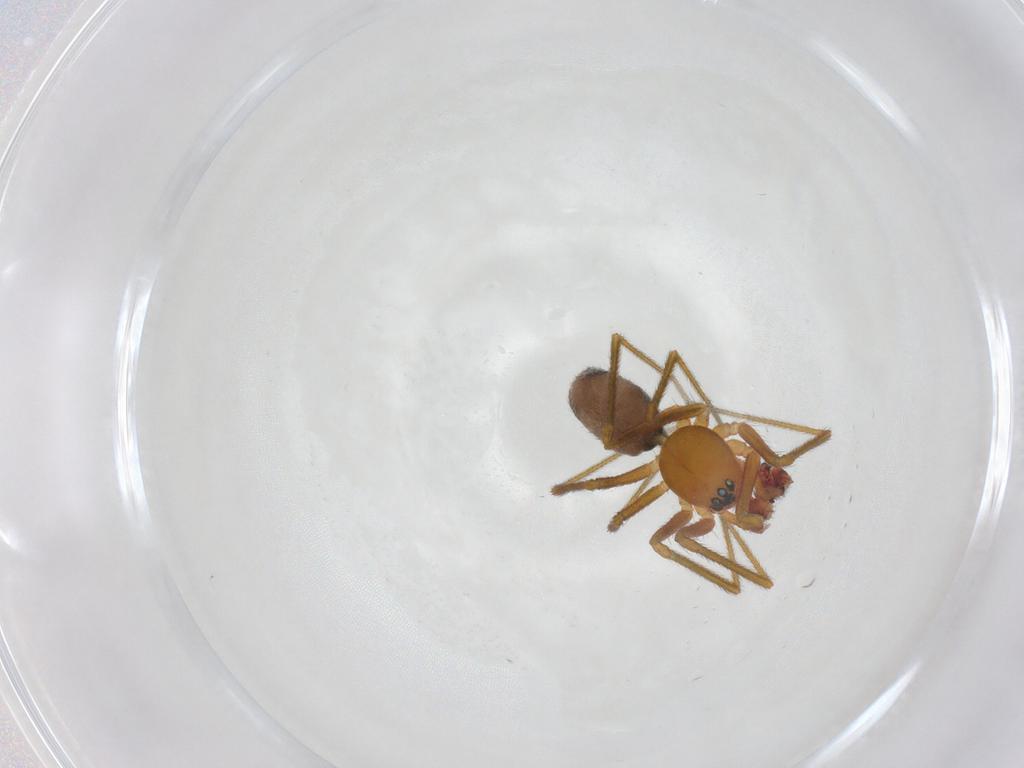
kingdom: Animalia
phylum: Arthropoda
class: Arachnida
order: Araneae
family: Linyphiidae
